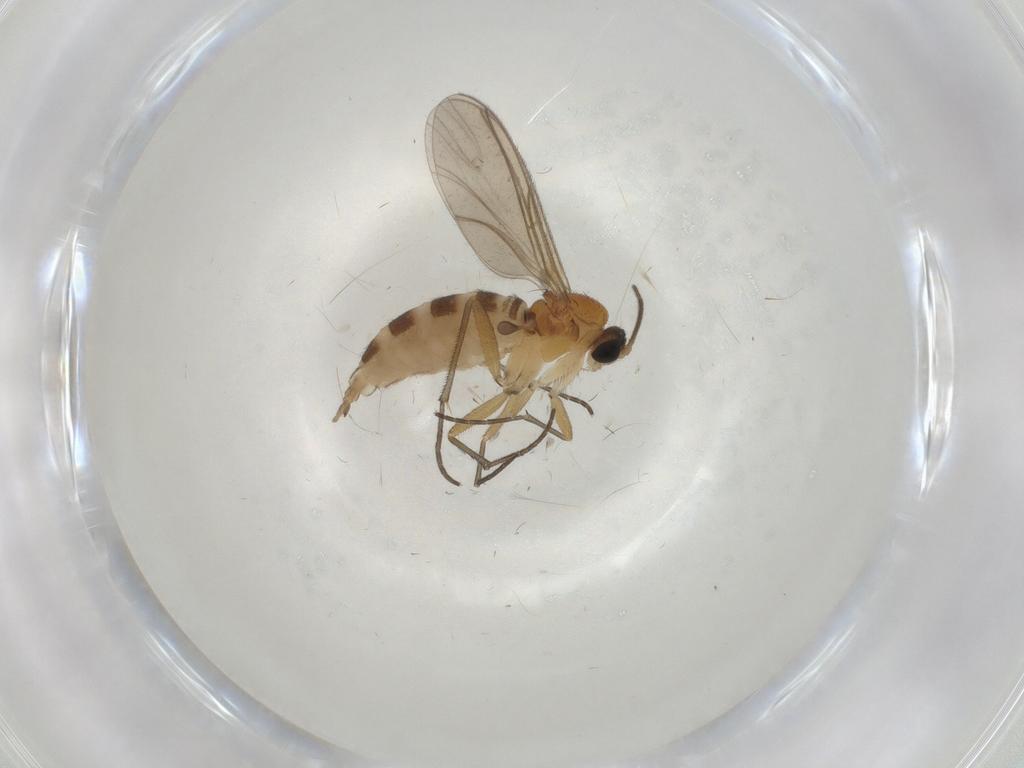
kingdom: Animalia
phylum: Arthropoda
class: Insecta
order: Diptera
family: Sciaridae
